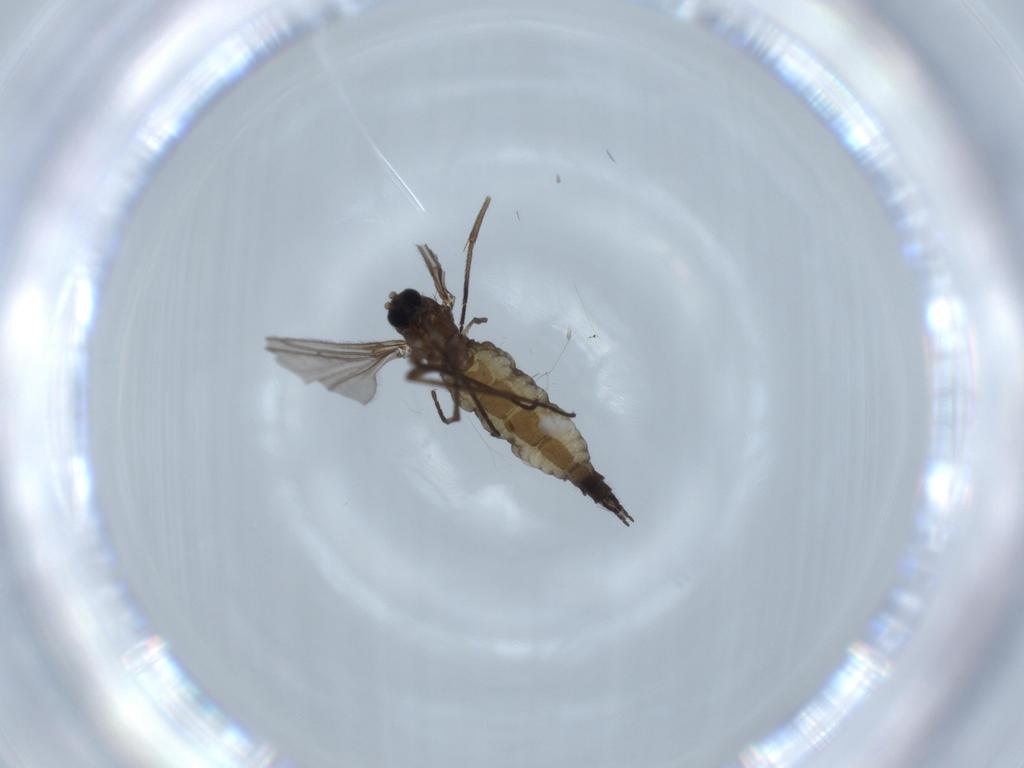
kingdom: Animalia
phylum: Arthropoda
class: Insecta
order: Diptera
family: Sciaridae
